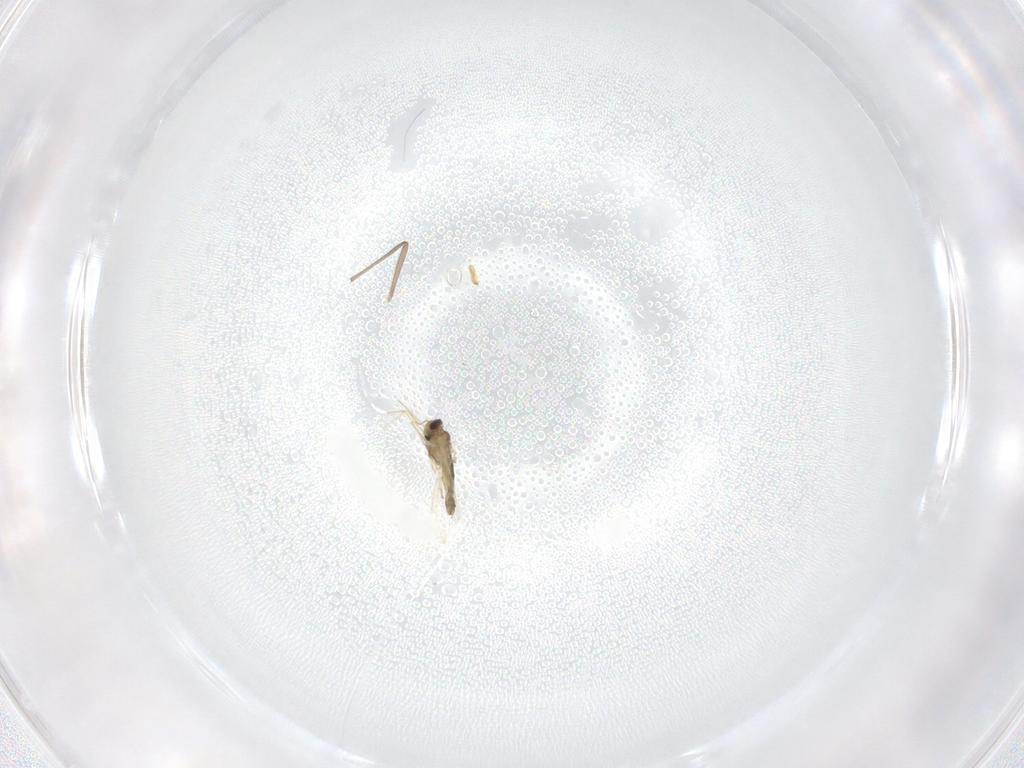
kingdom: Animalia
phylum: Arthropoda
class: Insecta
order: Diptera
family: Chironomidae
